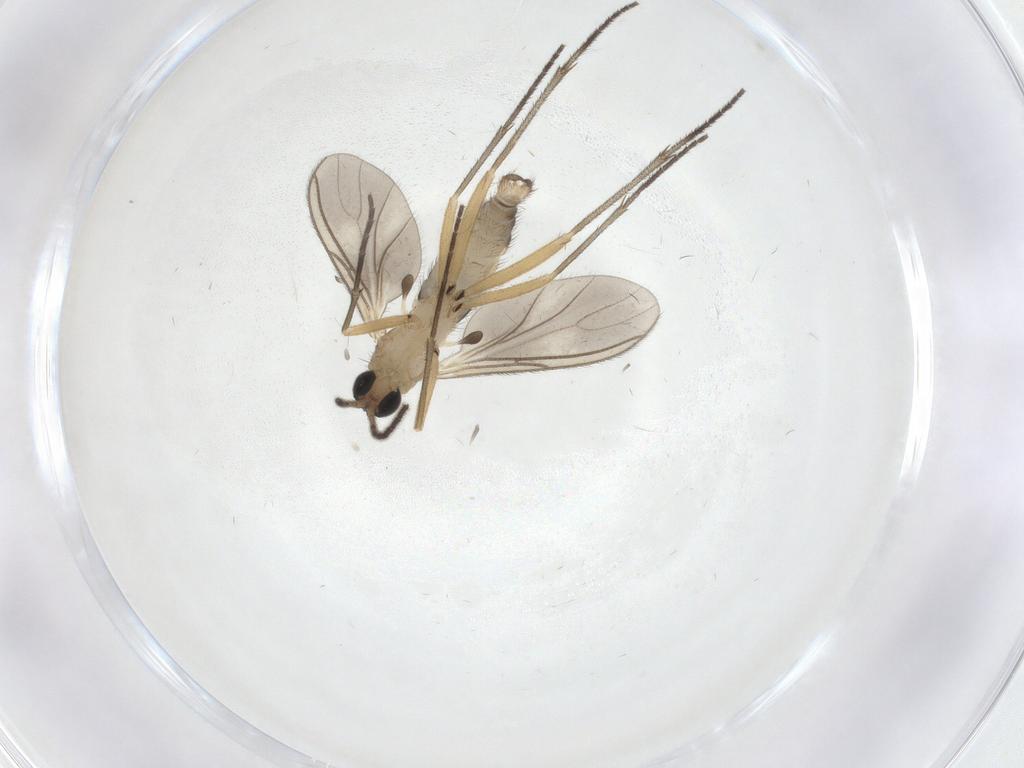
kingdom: Animalia
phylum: Arthropoda
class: Insecta
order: Diptera
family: Sciaridae
